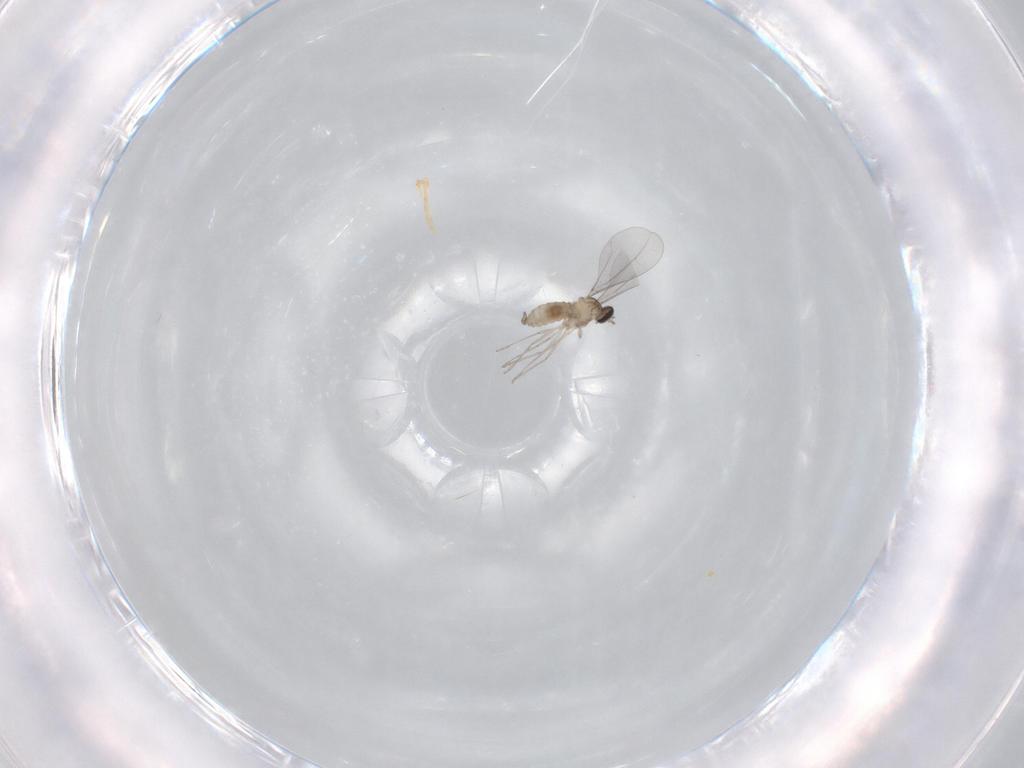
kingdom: Animalia
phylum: Arthropoda
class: Insecta
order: Diptera
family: Cecidomyiidae
